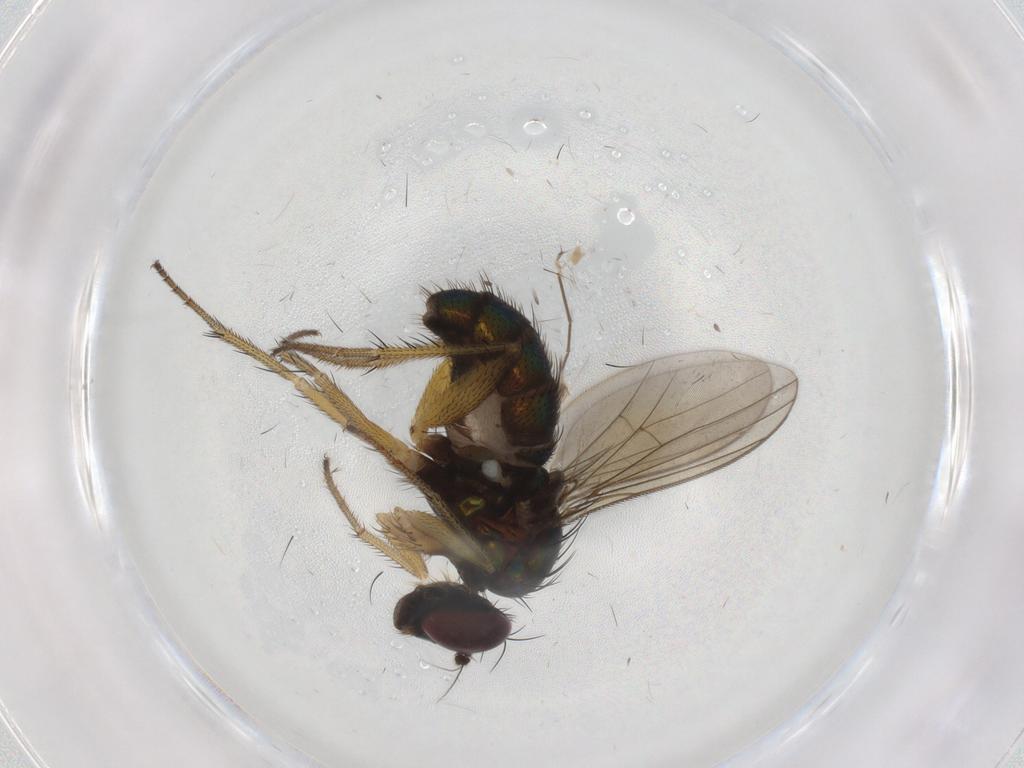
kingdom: Animalia
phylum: Arthropoda
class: Insecta
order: Diptera
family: Dolichopodidae
